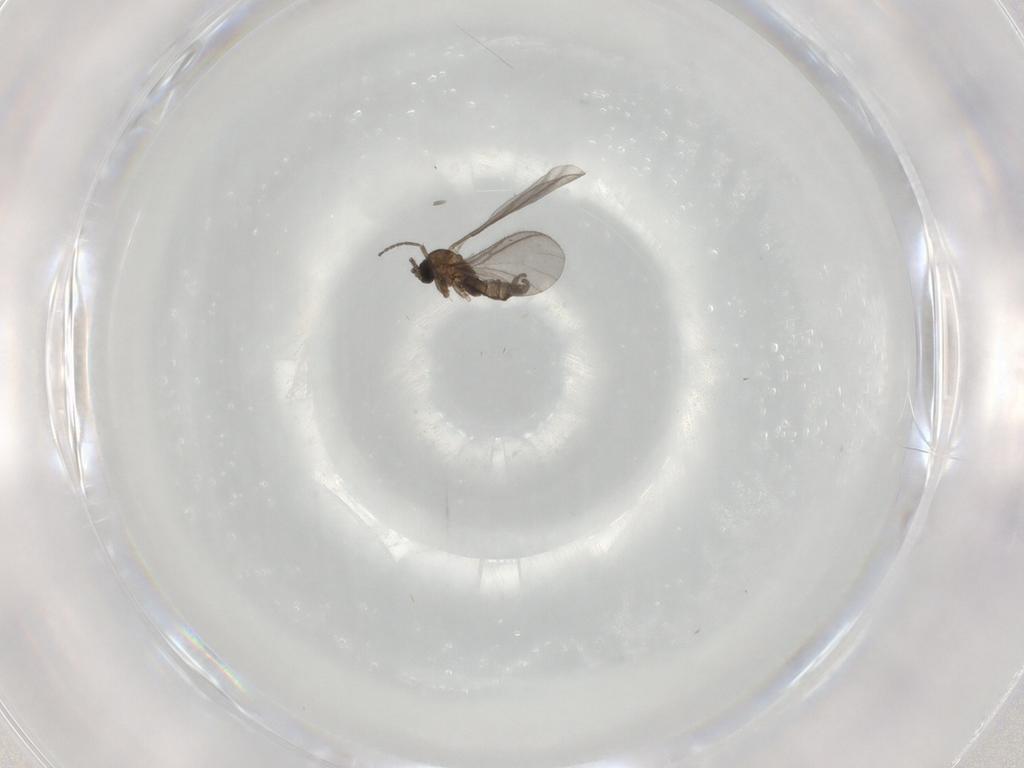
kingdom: Animalia
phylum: Arthropoda
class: Insecta
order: Diptera
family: Sciaridae
